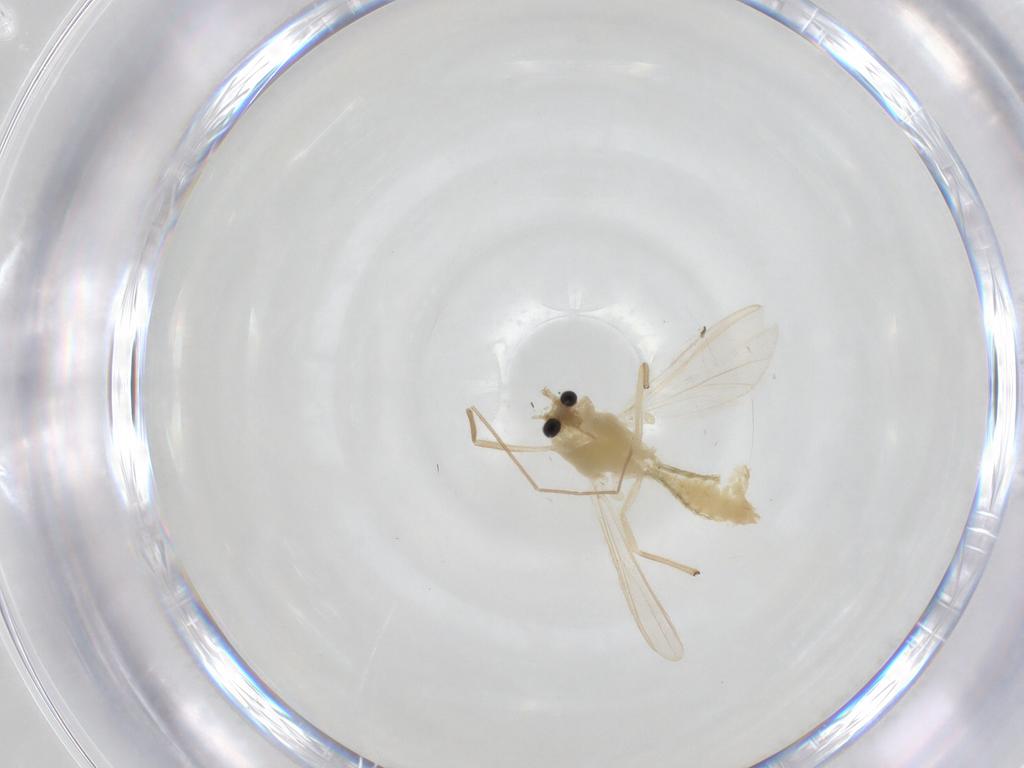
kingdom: Animalia
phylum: Arthropoda
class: Insecta
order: Diptera
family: Chironomidae
